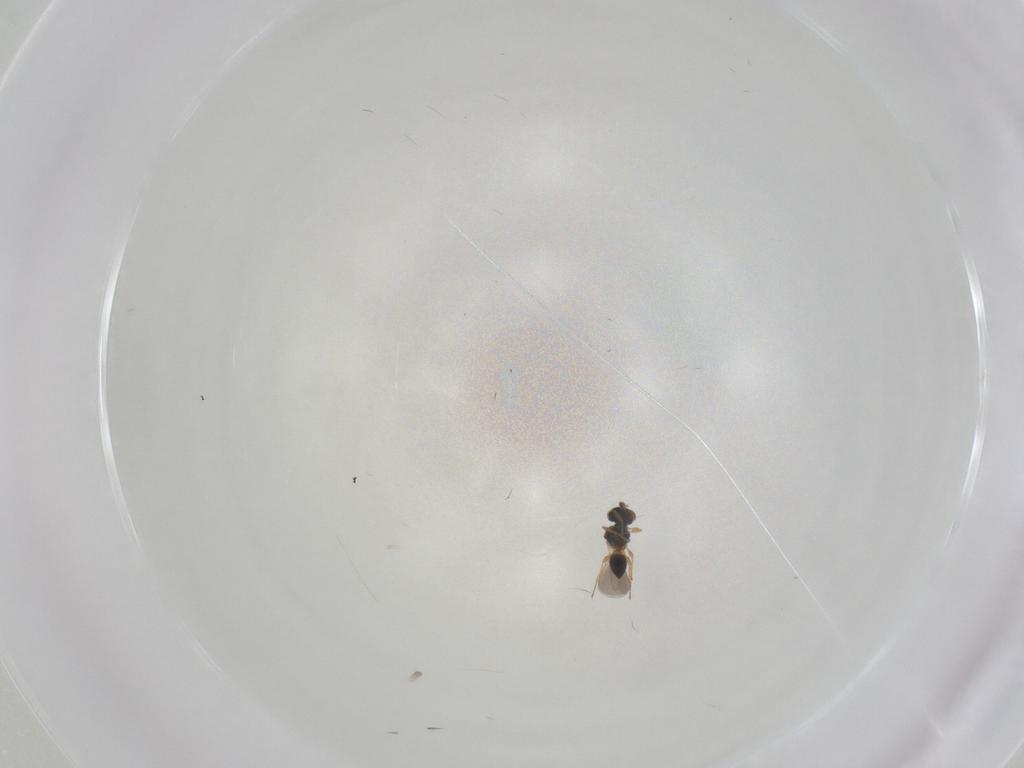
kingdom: Animalia
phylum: Arthropoda
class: Insecta
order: Hymenoptera
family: Platygastridae
